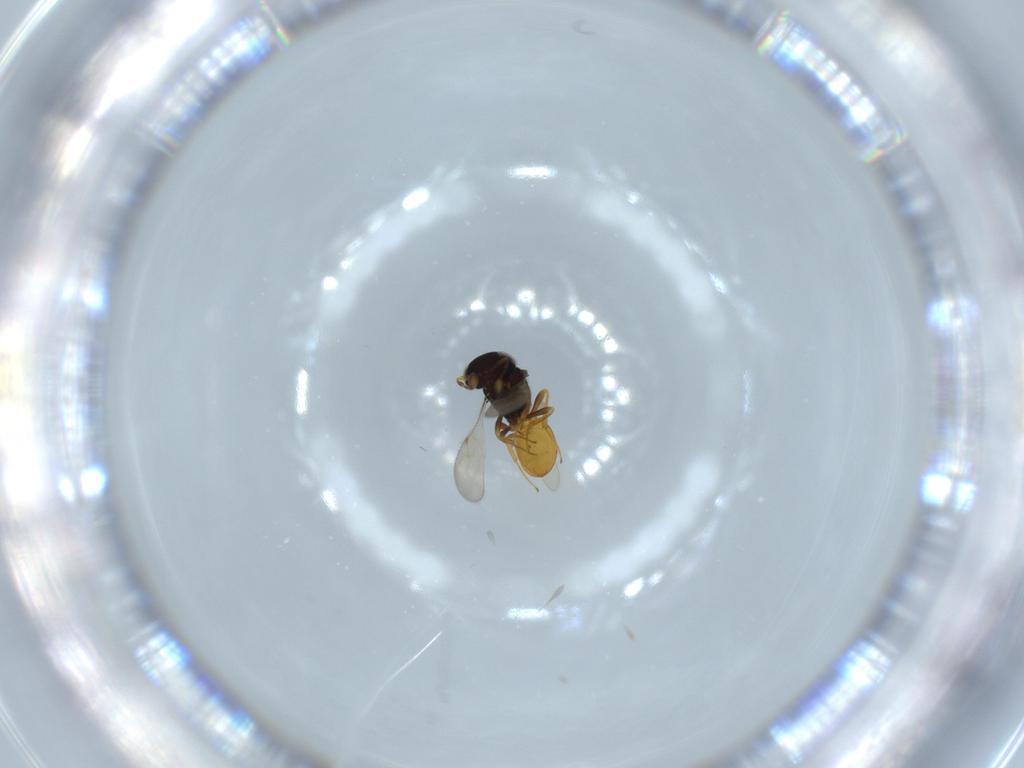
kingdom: Animalia
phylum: Arthropoda
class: Insecta
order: Hymenoptera
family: Scelionidae
